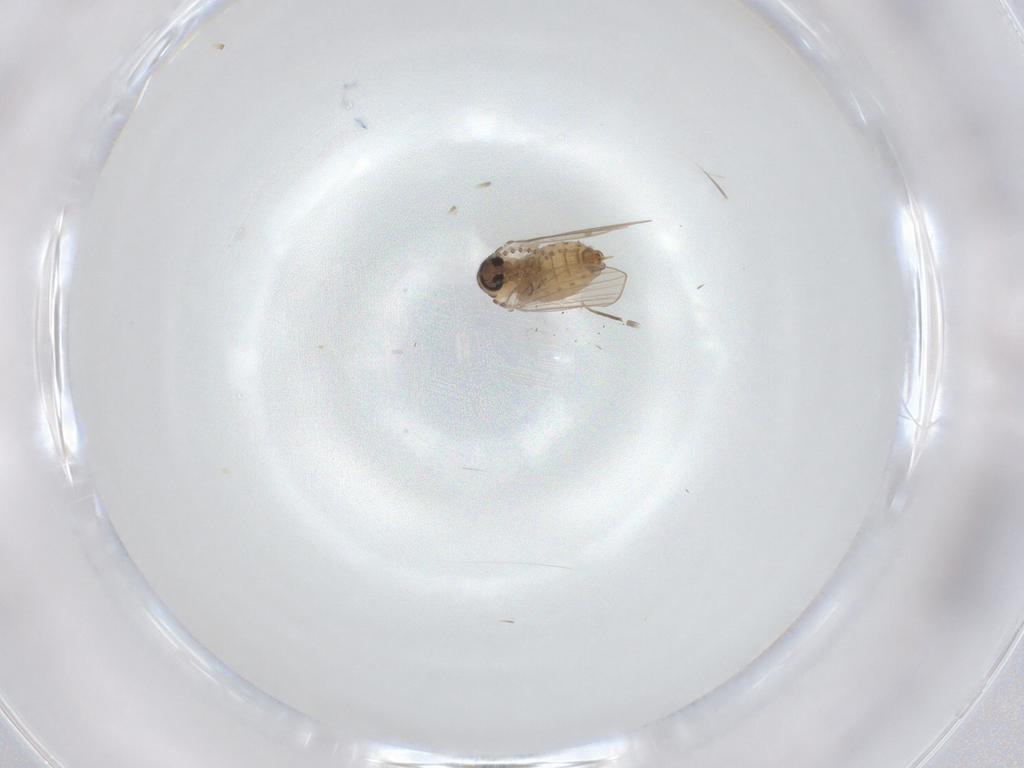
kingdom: Animalia
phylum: Arthropoda
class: Insecta
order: Diptera
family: Psychodidae
